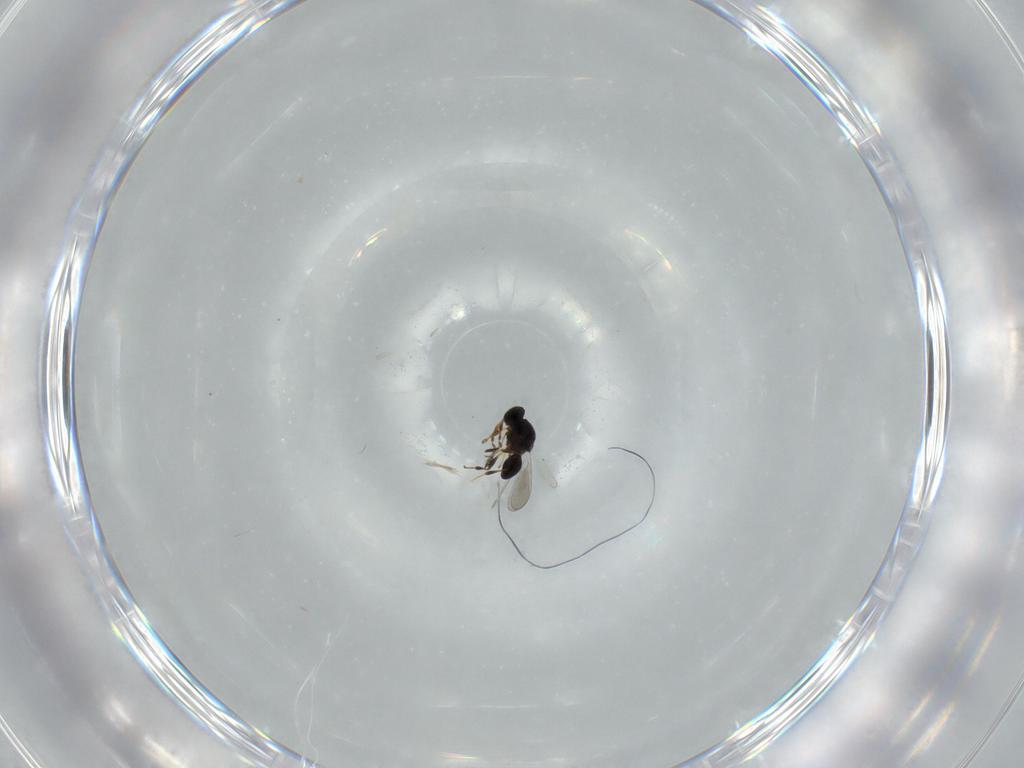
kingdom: Animalia
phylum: Arthropoda
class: Insecta
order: Hymenoptera
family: Platygastridae
